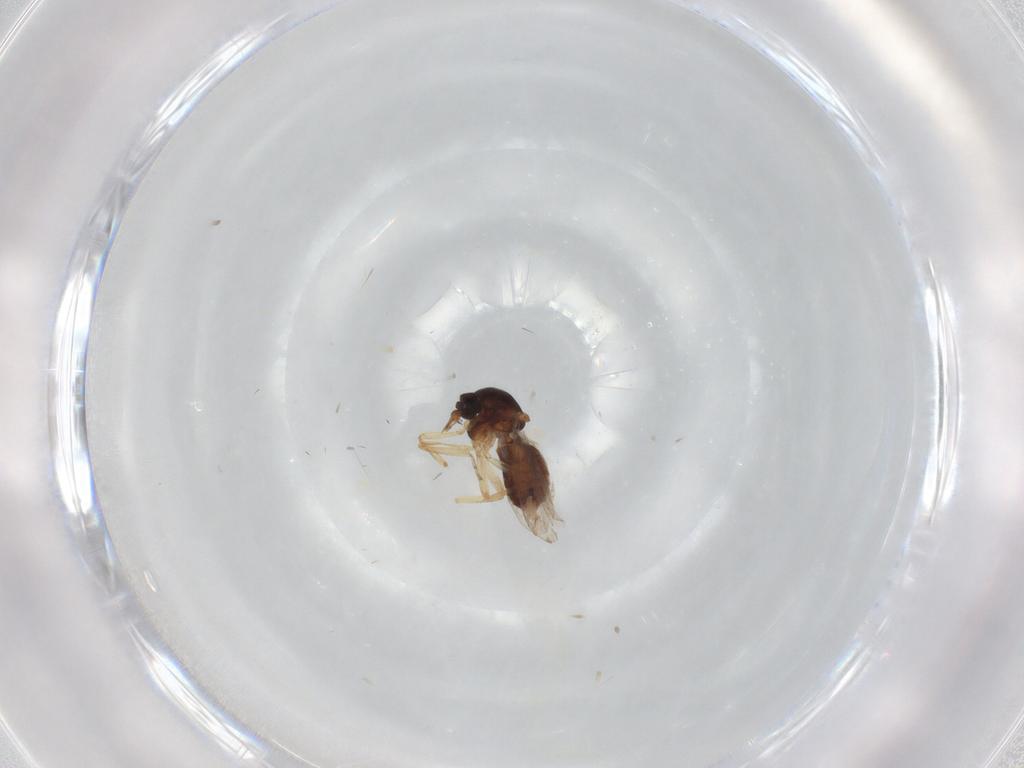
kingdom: Animalia
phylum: Arthropoda
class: Insecta
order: Diptera
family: Ceratopogonidae
